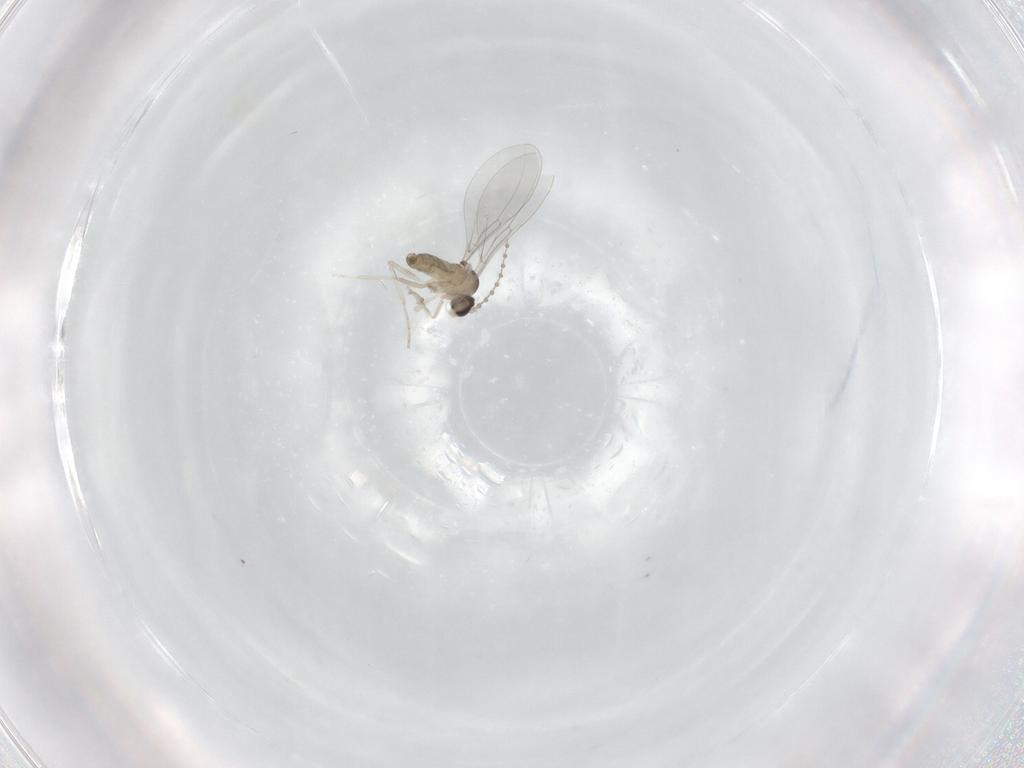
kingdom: Animalia
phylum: Arthropoda
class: Insecta
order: Diptera
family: Cecidomyiidae
